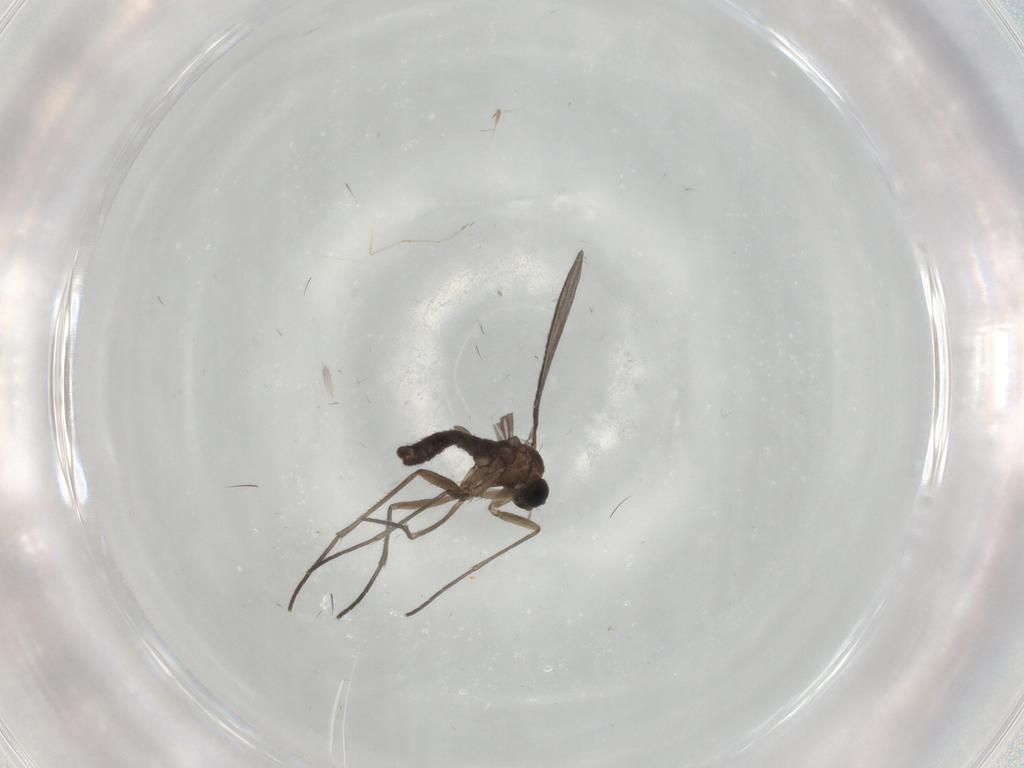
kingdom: Animalia
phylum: Arthropoda
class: Insecta
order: Diptera
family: Sciaridae
